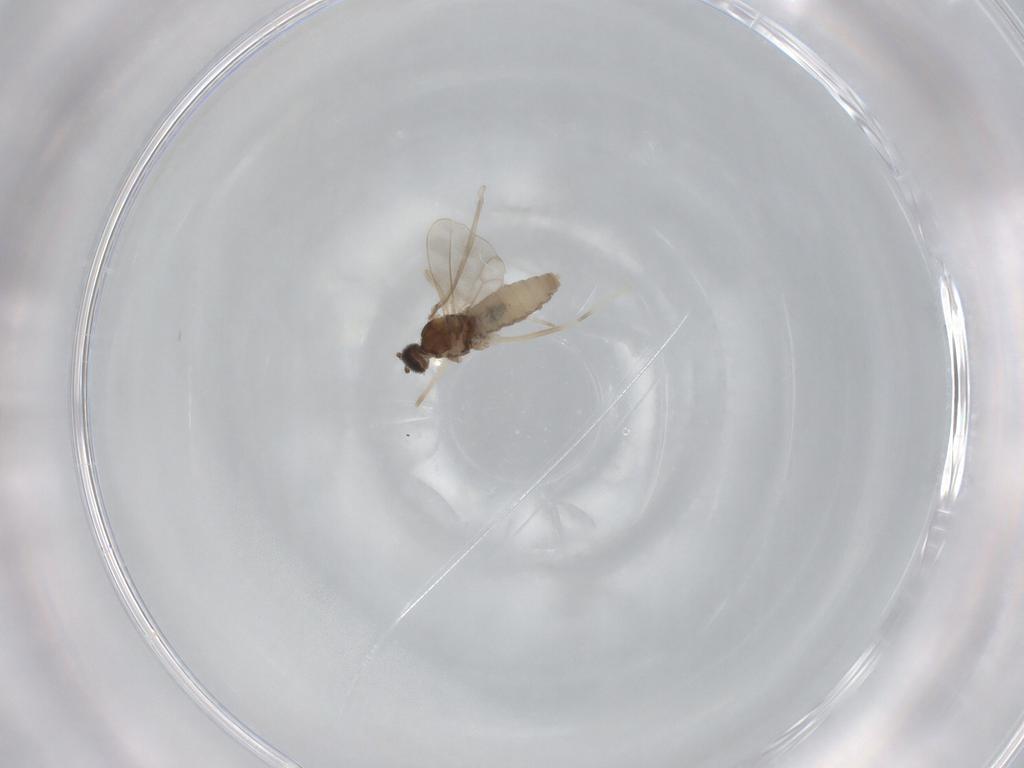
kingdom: Animalia
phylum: Arthropoda
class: Insecta
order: Diptera
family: Cecidomyiidae
